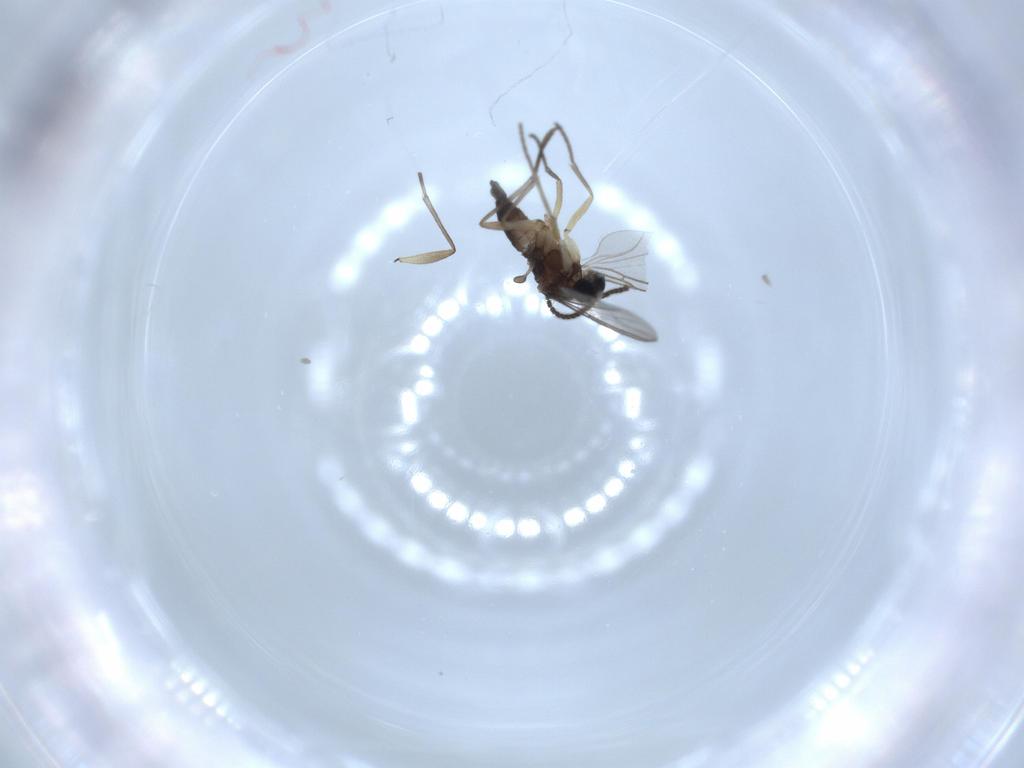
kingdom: Animalia
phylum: Arthropoda
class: Insecta
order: Diptera
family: Sciaridae
